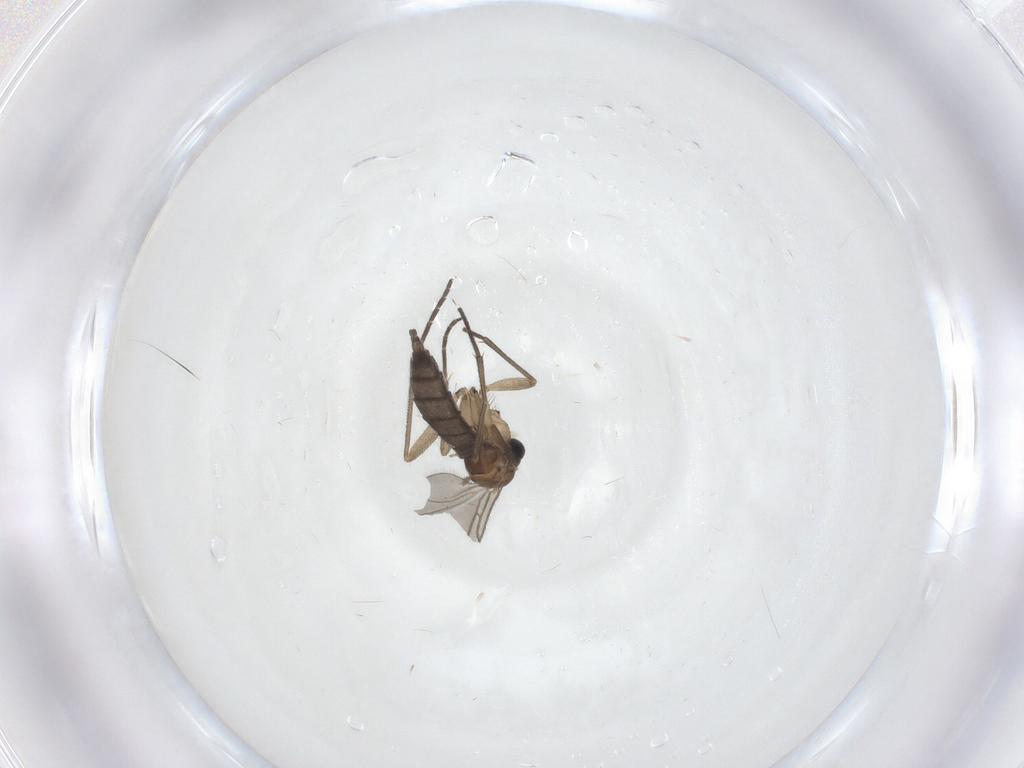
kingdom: Animalia
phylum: Arthropoda
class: Insecta
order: Diptera
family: Sciaridae
